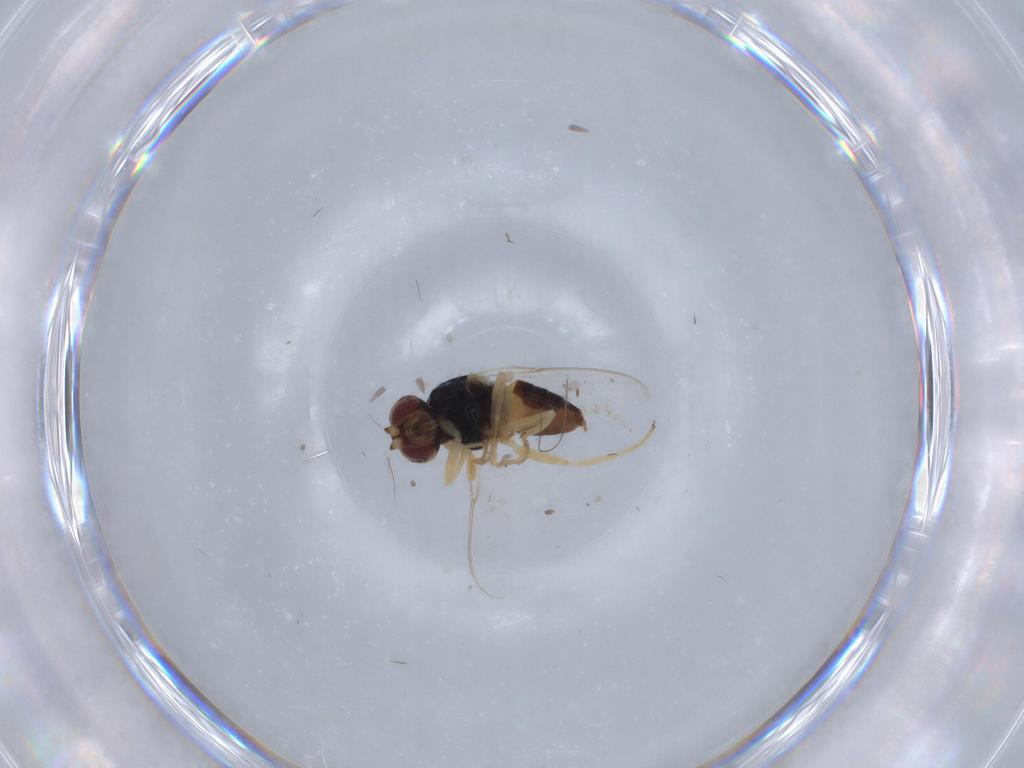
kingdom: Animalia
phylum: Arthropoda
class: Insecta
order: Diptera
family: Chloropidae
